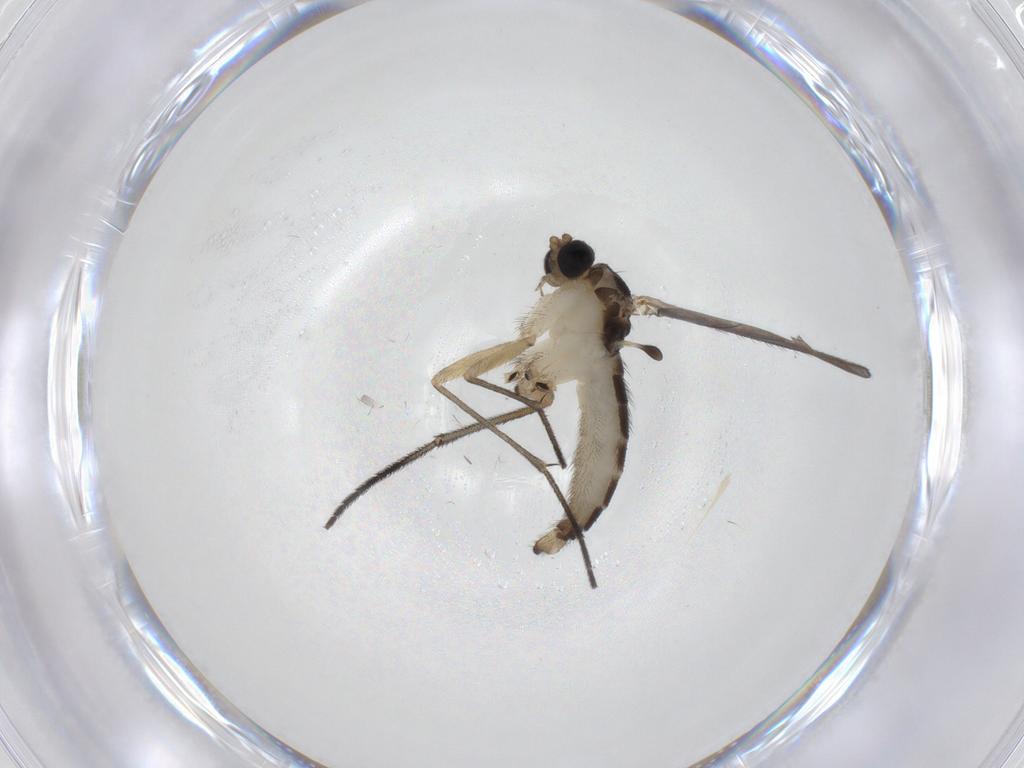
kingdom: Animalia
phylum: Arthropoda
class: Insecta
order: Diptera
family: Sciaridae
